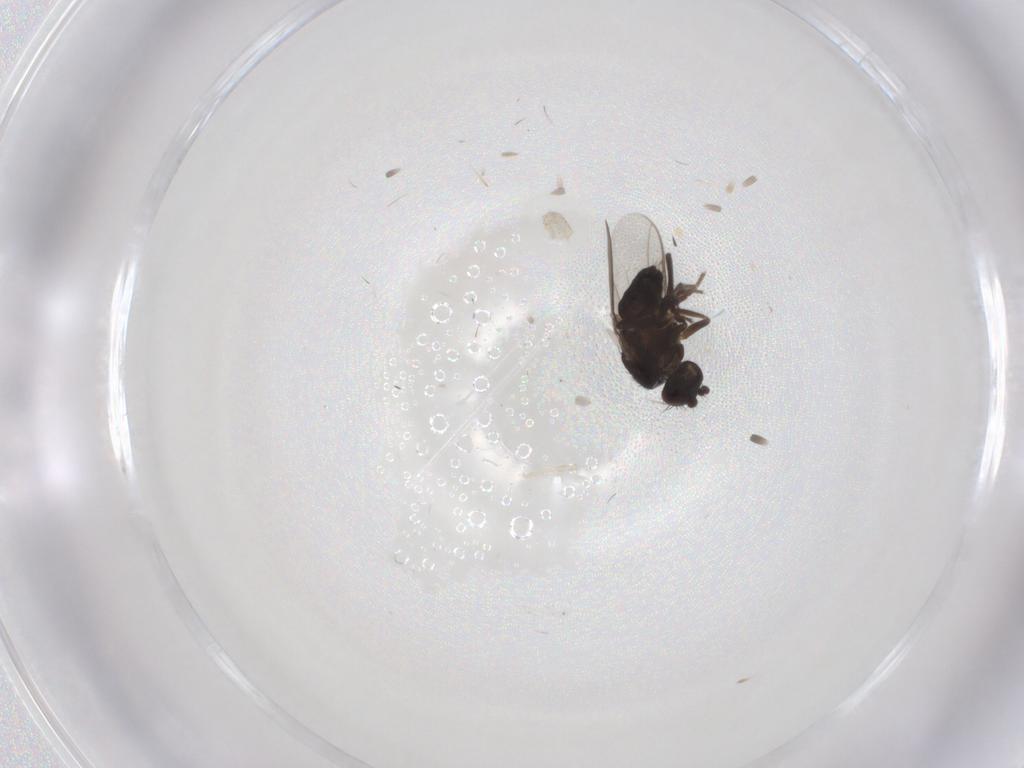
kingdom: Animalia
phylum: Arthropoda
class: Insecta
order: Diptera
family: Sphaeroceridae
